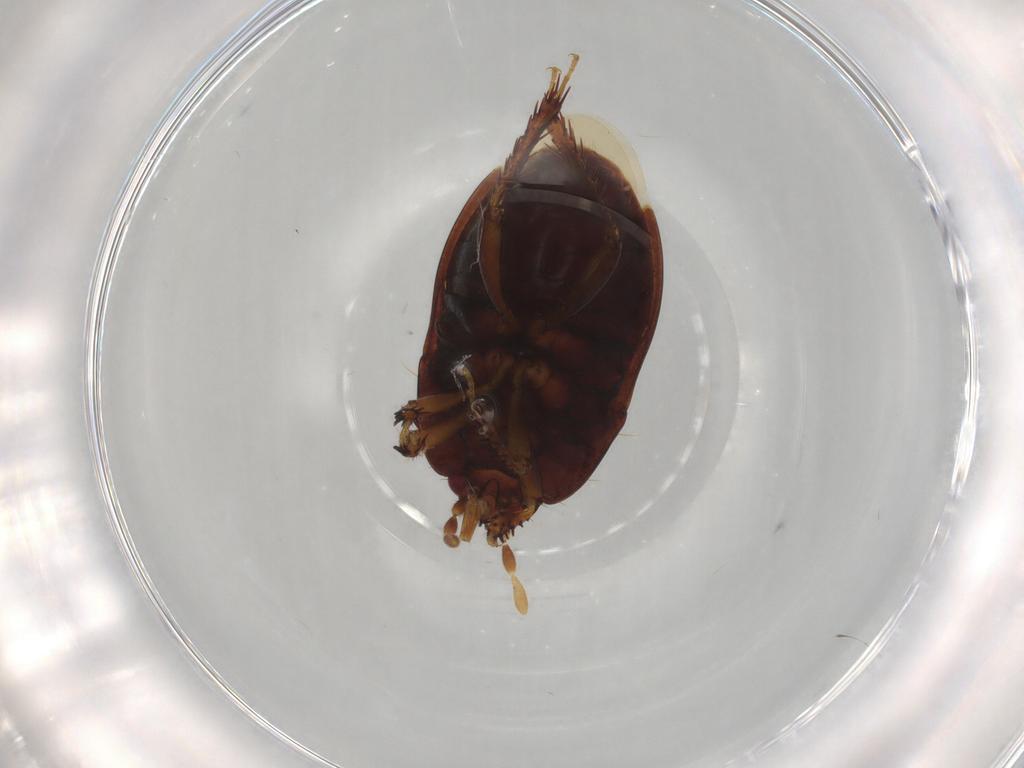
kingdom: Animalia
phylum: Arthropoda
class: Insecta
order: Hemiptera
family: Cydnidae
